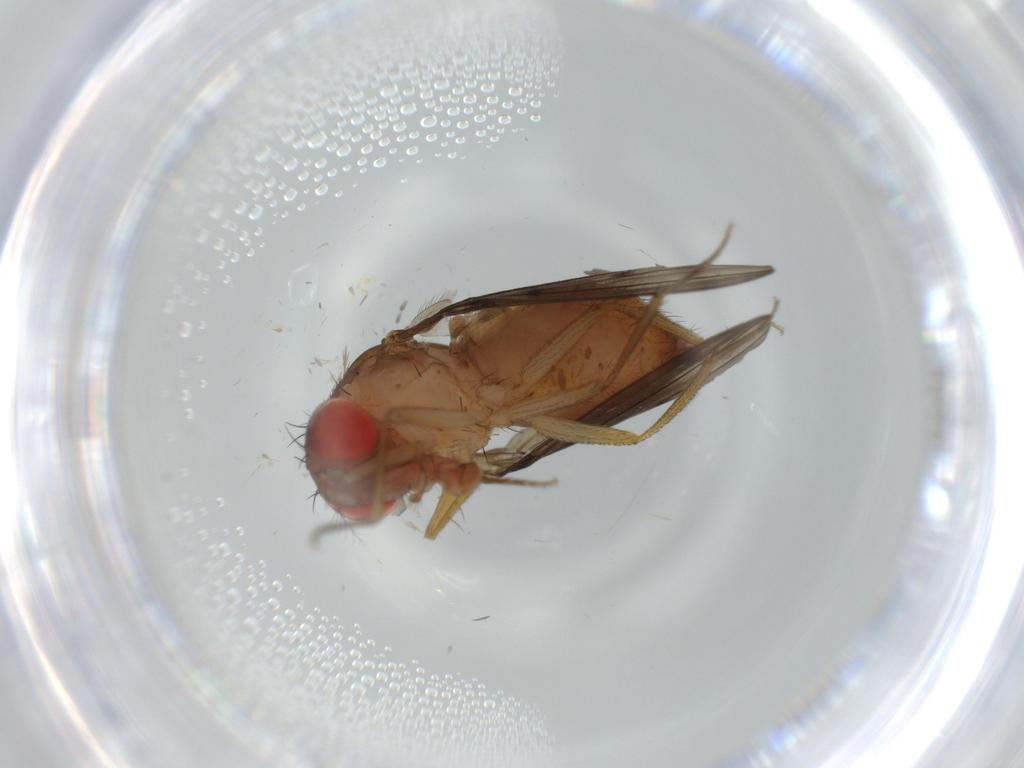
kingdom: Animalia
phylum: Arthropoda
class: Insecta
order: Diptera
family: Drosophilidae
